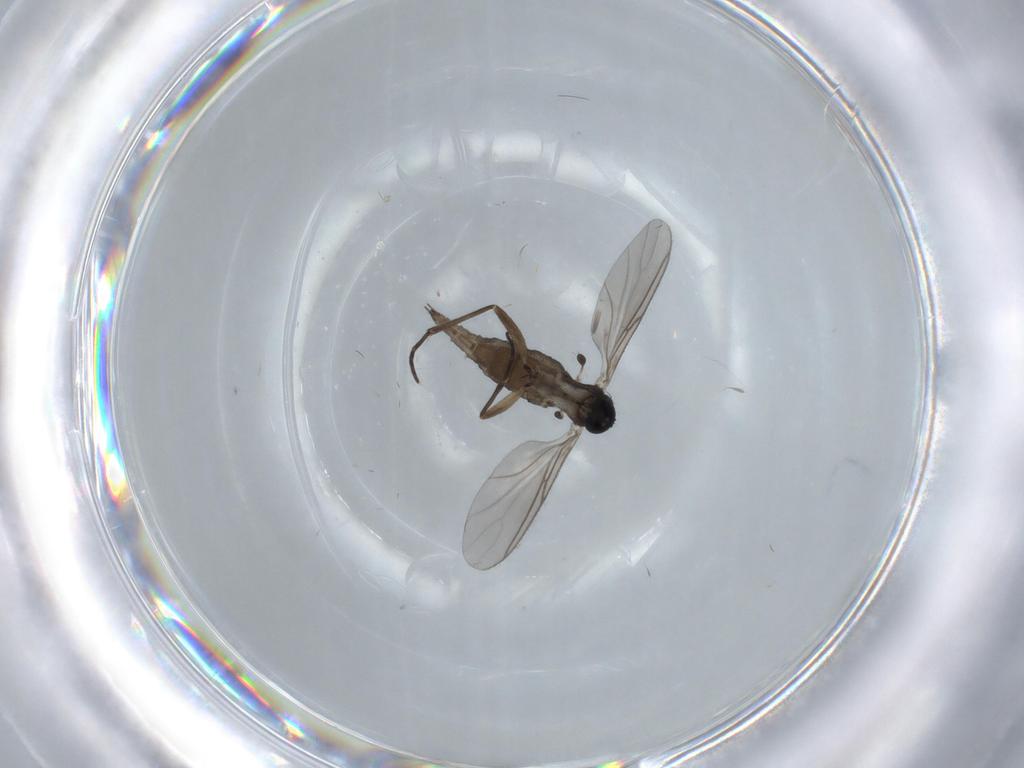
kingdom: Animalia
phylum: Arthropoda
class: Insecta
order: Diptera
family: Sciaridae
